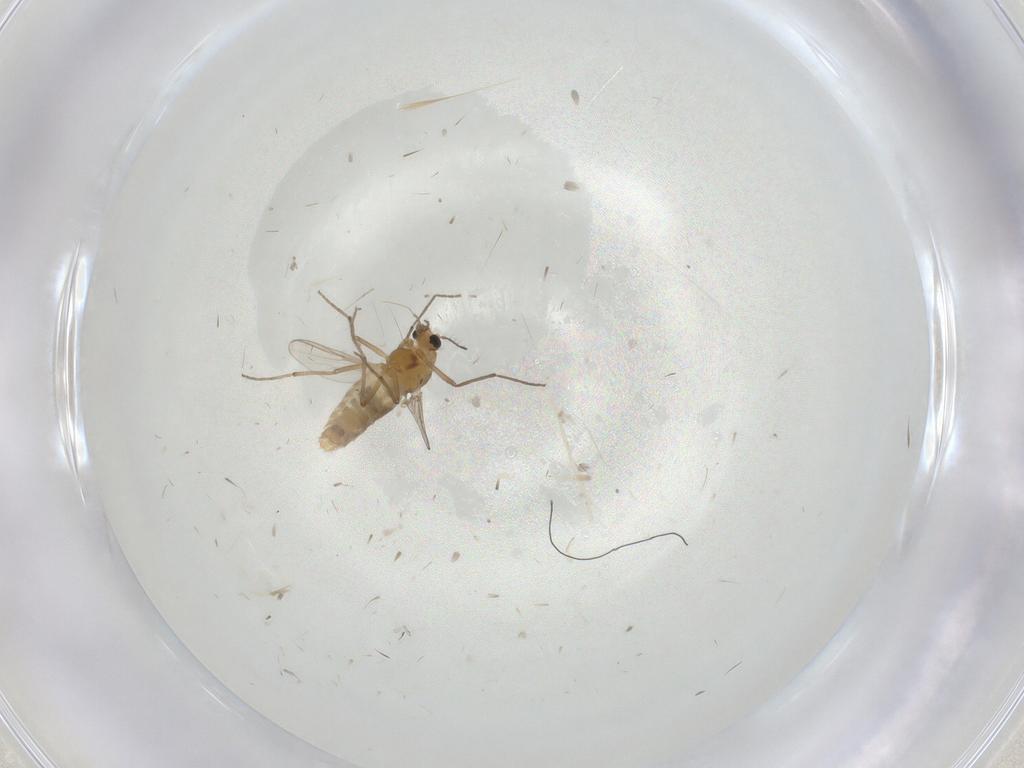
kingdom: Animalia
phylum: Arthropoda
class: Insecta
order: Diptera
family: Tabanidae
